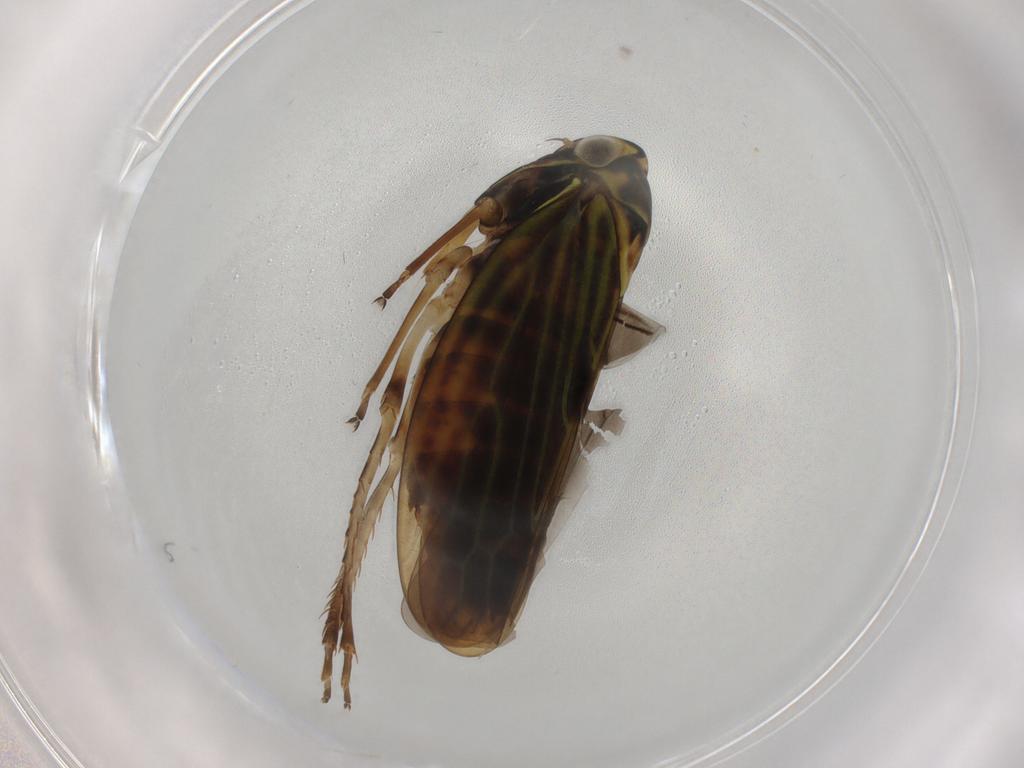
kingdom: Animalia
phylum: Arthropoda
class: Insecta
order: Hemiptera
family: Cicadellidae
